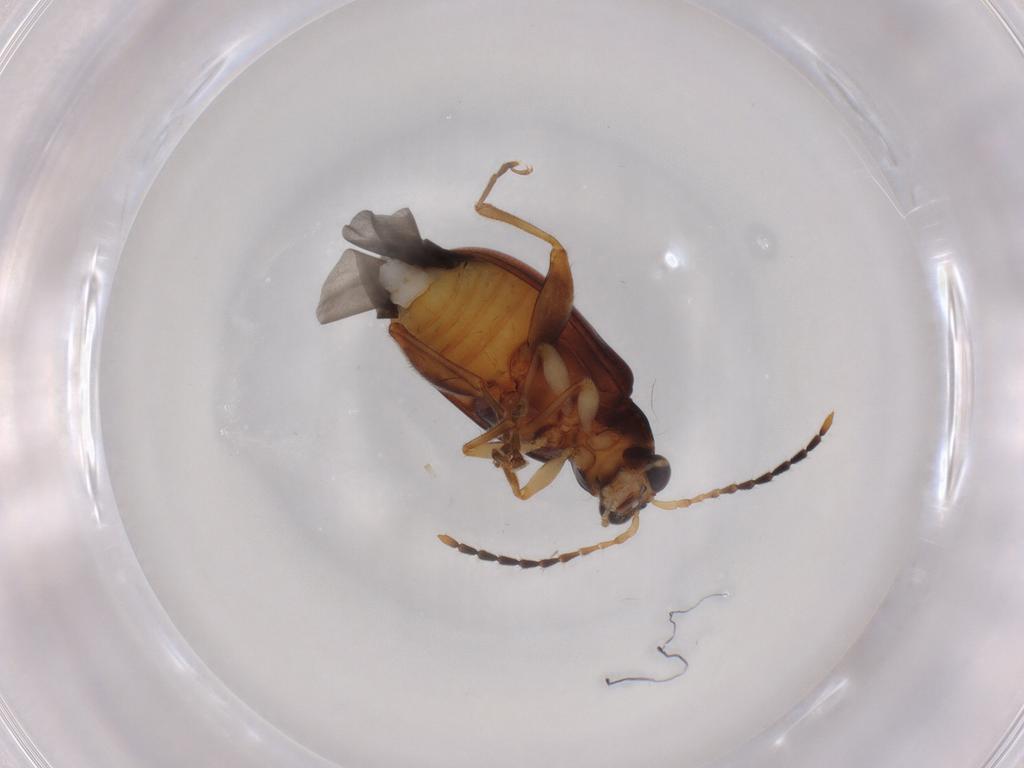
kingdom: Animalia
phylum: Arthropoda
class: Insecta
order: Coleoptera
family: Chrysomelidae
